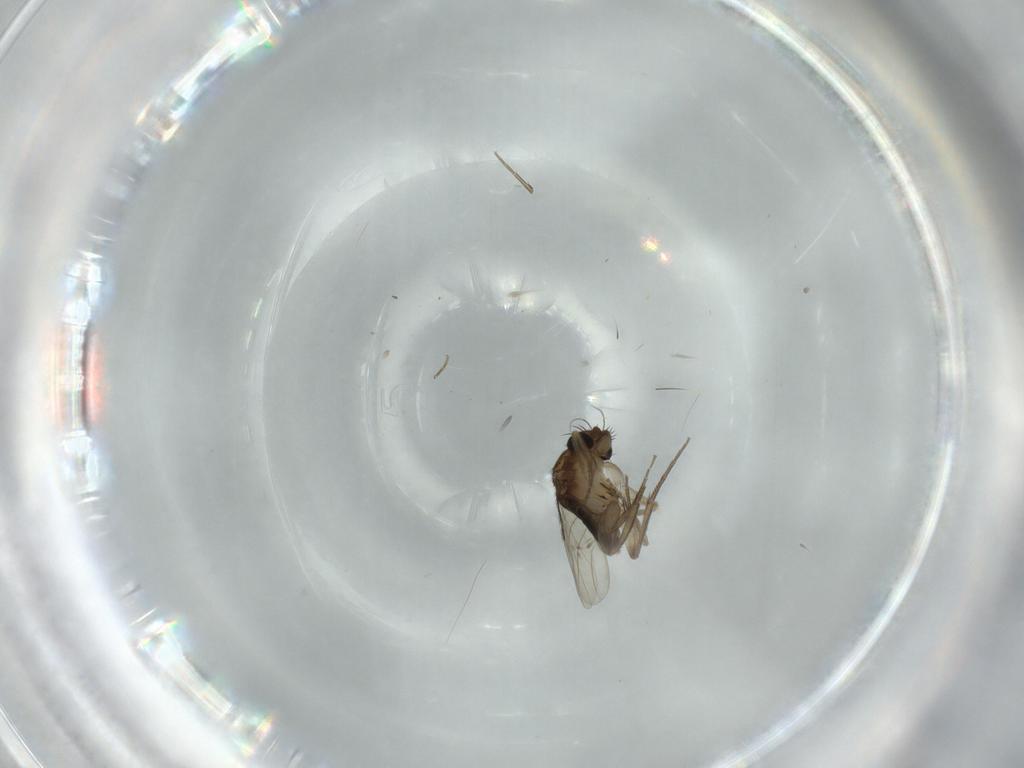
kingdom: Animalia
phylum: Arthropoda
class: Insecta
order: Diptera
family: Phoridae
